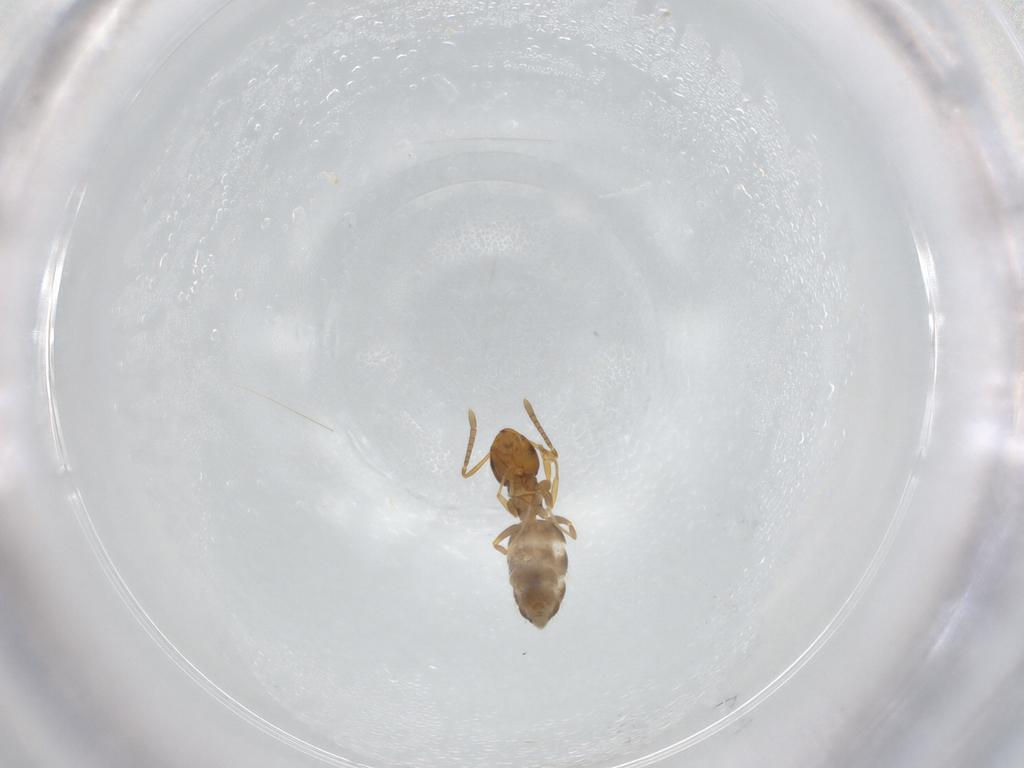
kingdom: Animalia
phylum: Arthropoda
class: Insecta
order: Hymenoptera
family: Formicidae
